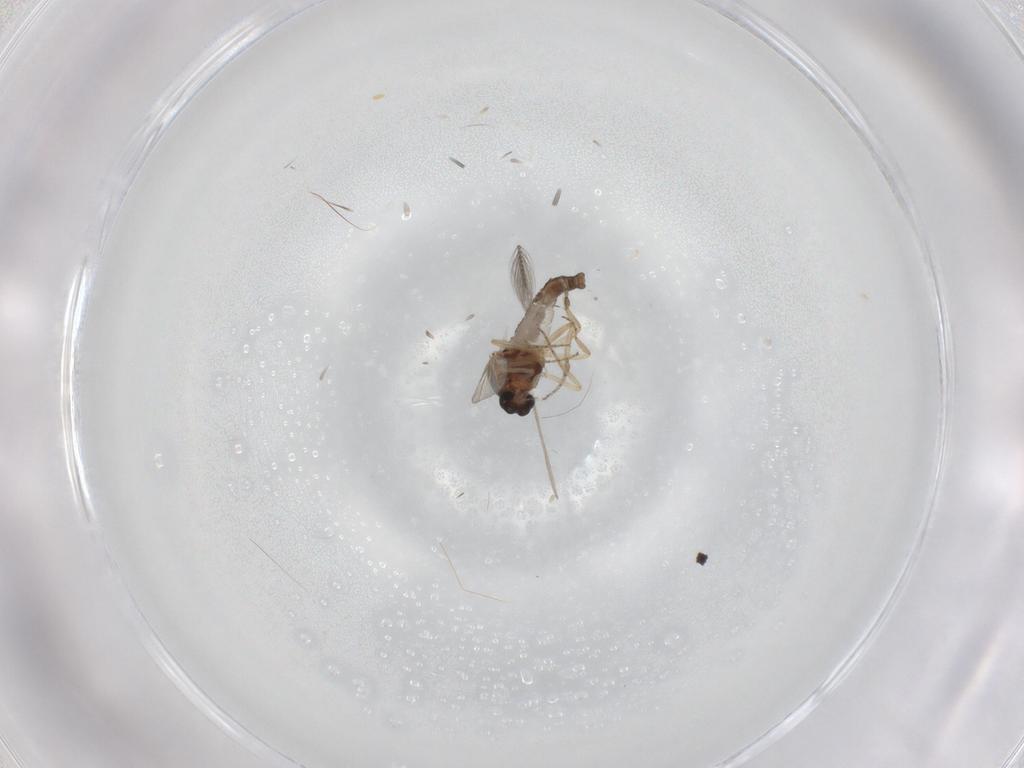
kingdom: Animalia
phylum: Arthropoda
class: Insecta
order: Diptera
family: Ceratopogonidae
